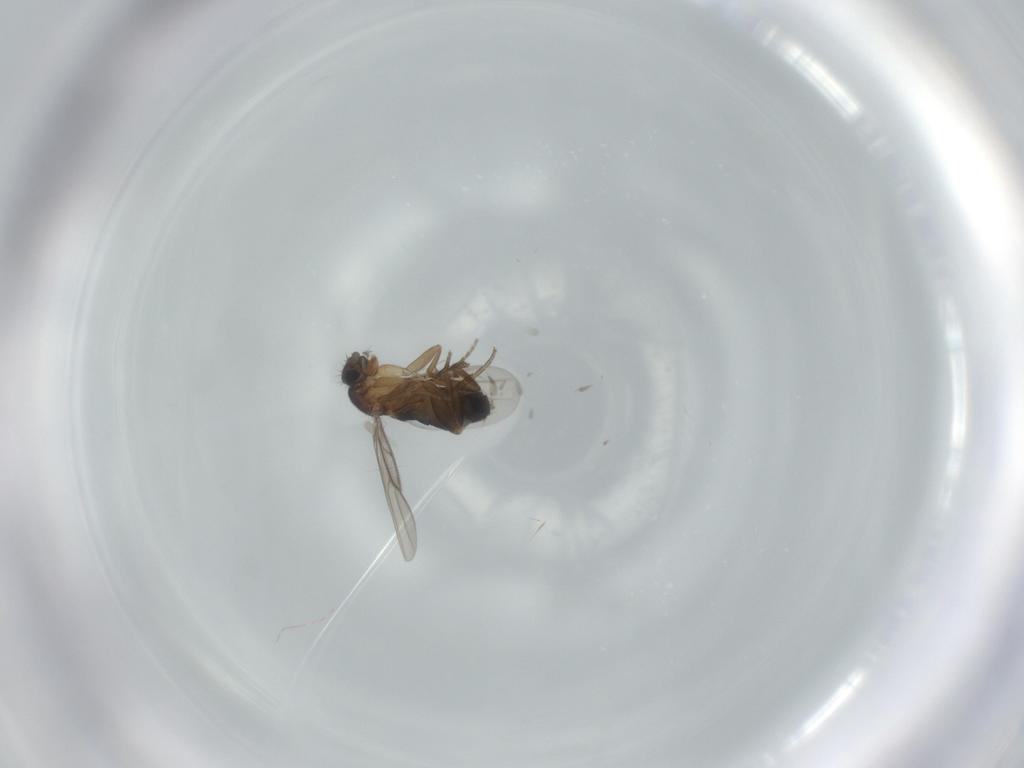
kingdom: Animalia
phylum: Arthropoda
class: Insecta
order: Diptera
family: Phoridae
